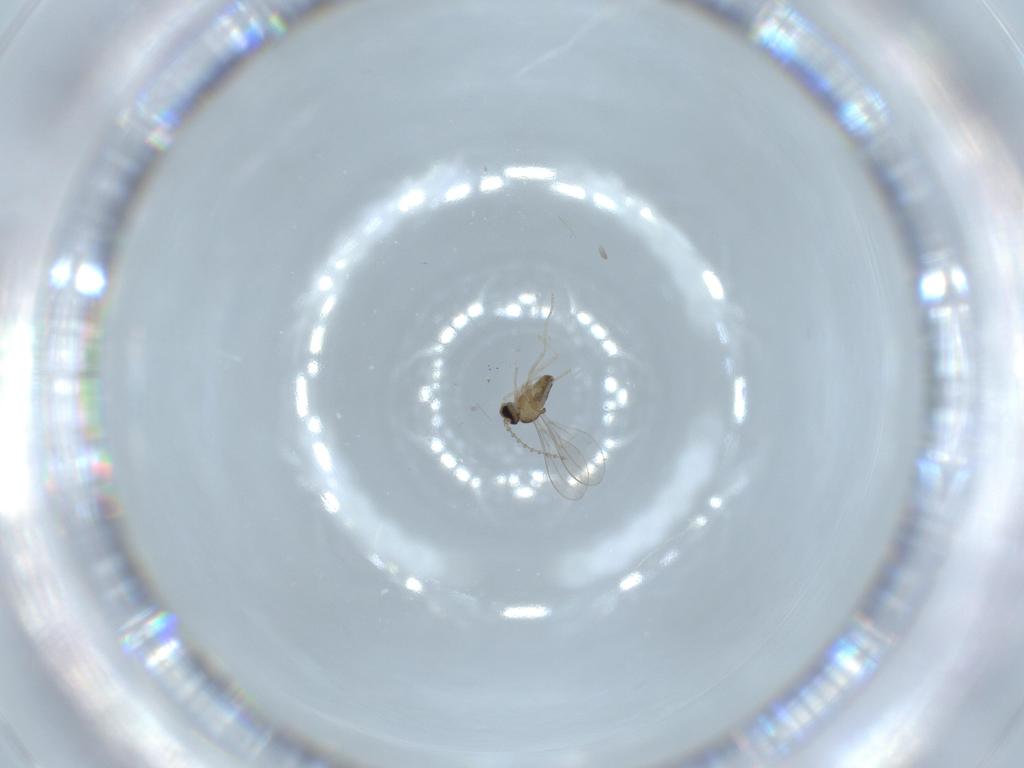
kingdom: Animalia
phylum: Arthropoda
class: Insecta
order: Diptera
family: Cecidomyiidae
